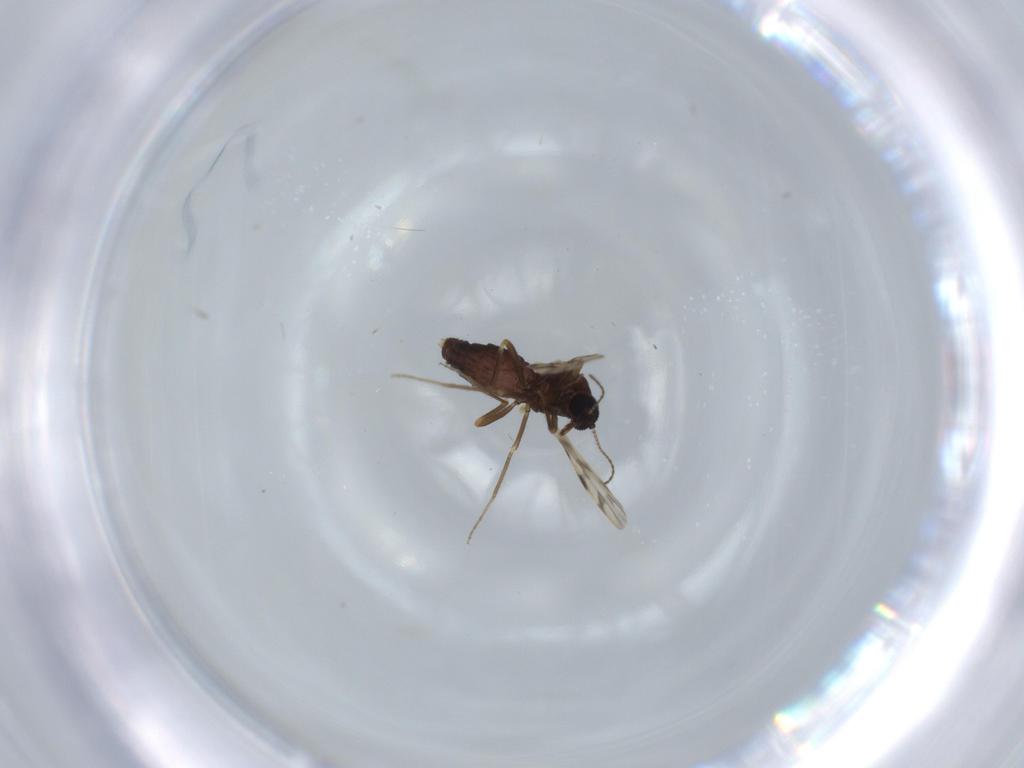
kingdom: Animalia
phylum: Arthropoda
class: Insecta
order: Diptera
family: Ceratopogonidae
